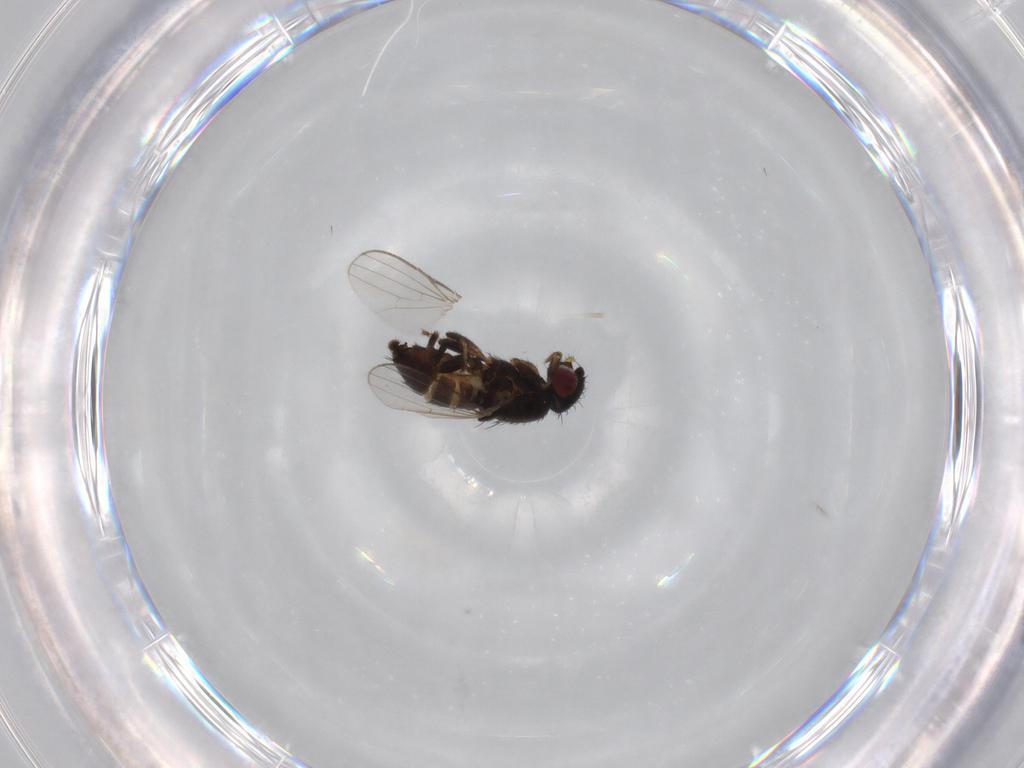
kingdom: Animalia
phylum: Arthropoda
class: Insecta
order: Diptera
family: Milichiidae
